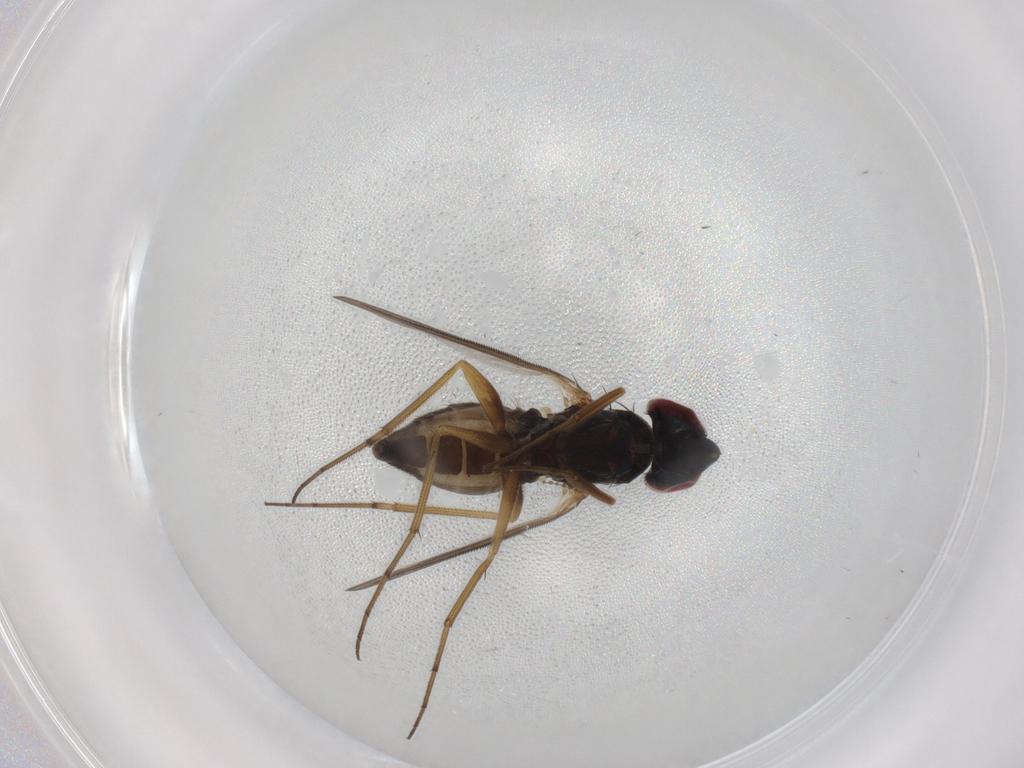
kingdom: Animalia
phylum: Arthropoda
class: Insecta
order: Diptera
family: Dolichopodidae
